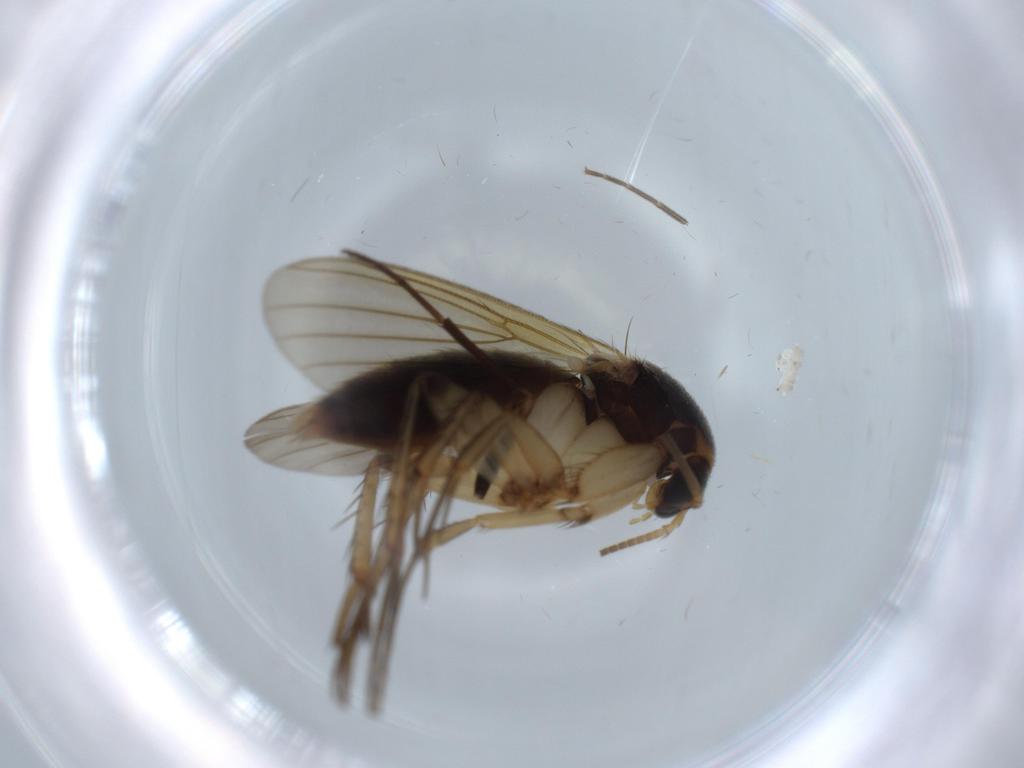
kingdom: Animalia
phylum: Arthropoda
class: Insecta
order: Diptera
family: Mycetophilidae
